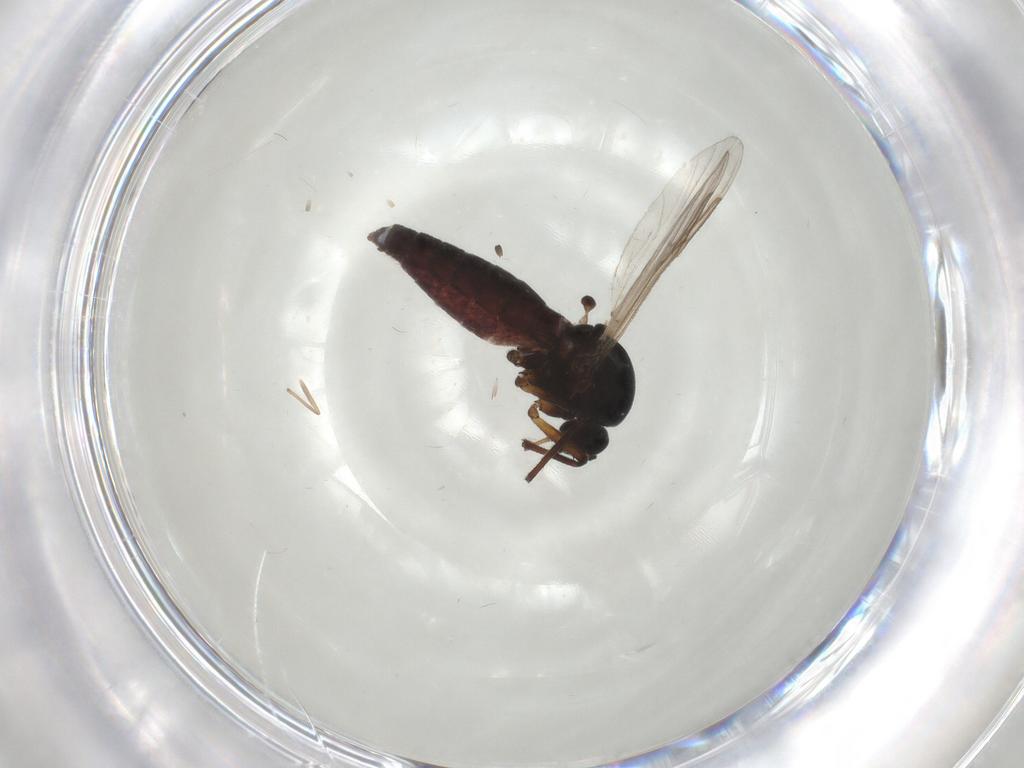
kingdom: Animalia
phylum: Arthropoda
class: Insecta
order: Diptera
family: Ceratopogonidae
